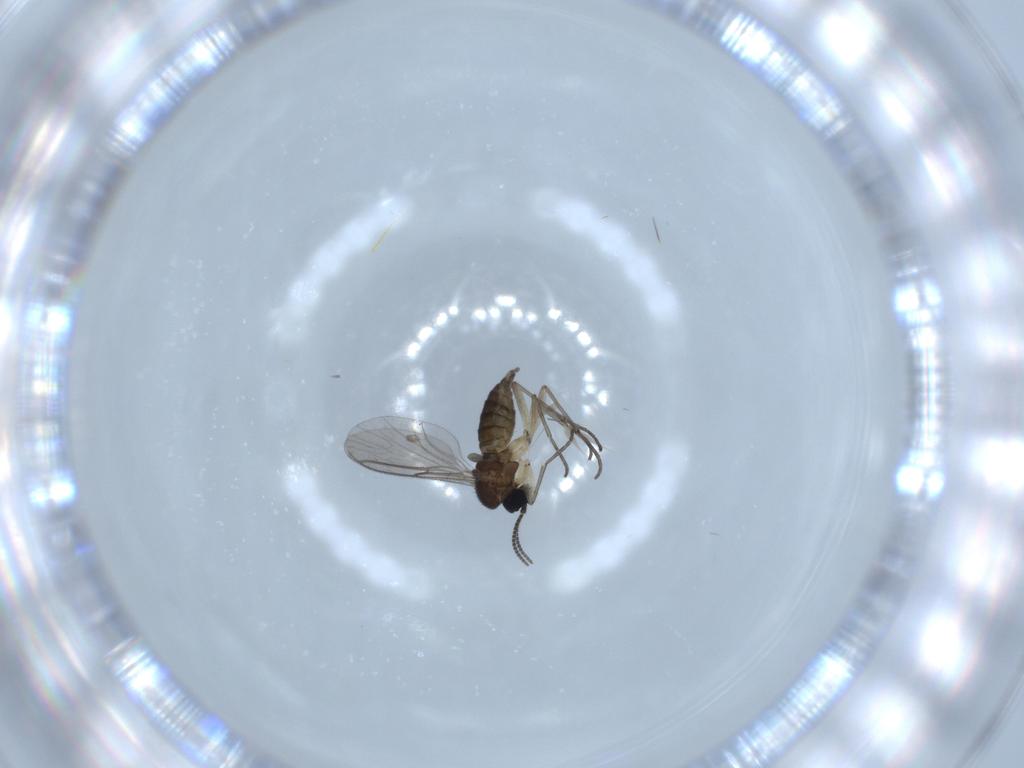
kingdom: Animalia
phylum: Arthropoda
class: Insecta
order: Diptera
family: Sciaridae
